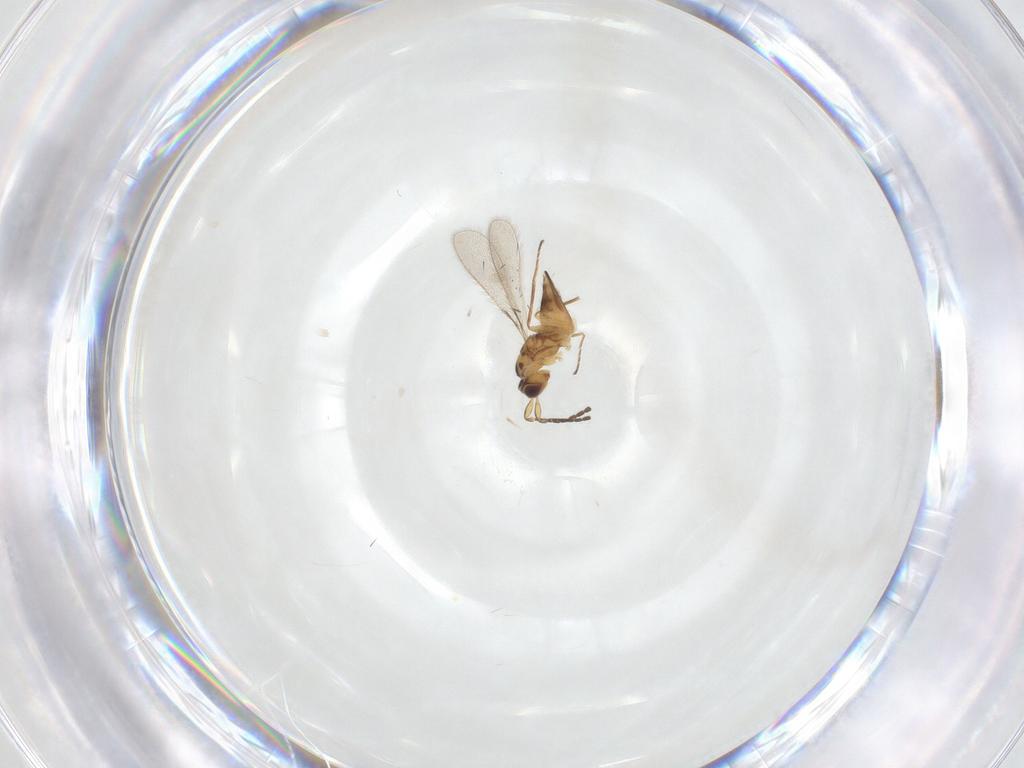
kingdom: Animalia
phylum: Arthropoda
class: Insecta
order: Hymenoptera
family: Mymaridae
